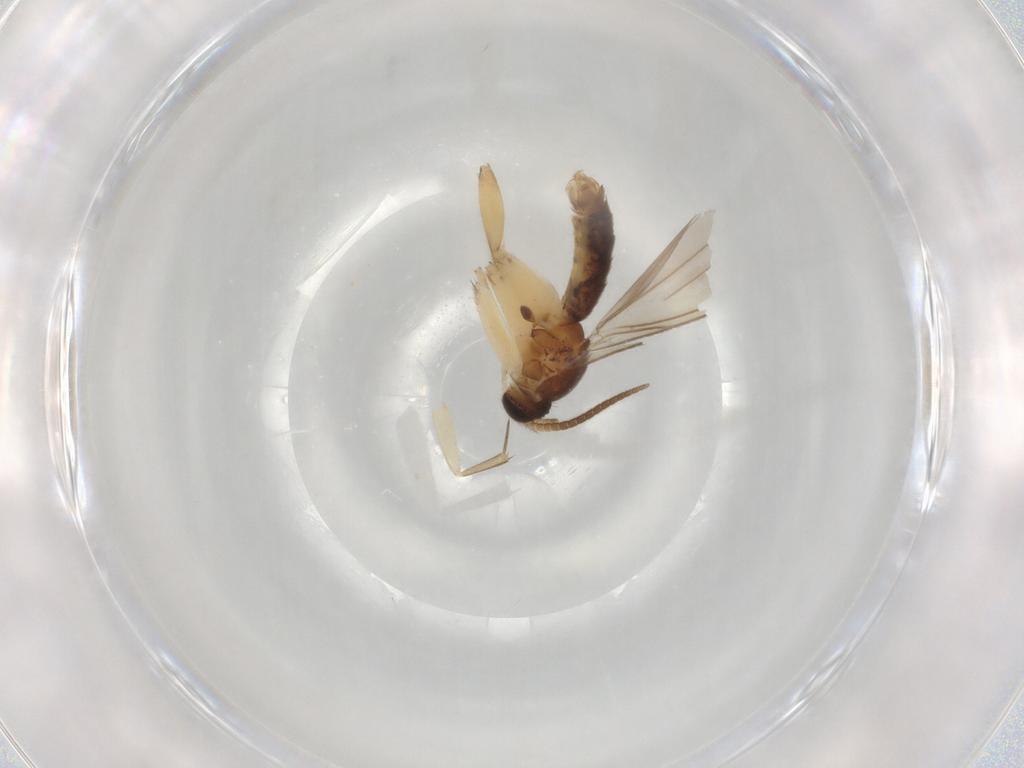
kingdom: Animalia
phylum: Arthropoda
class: Insecta
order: Diptera
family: Mycetophilidae
